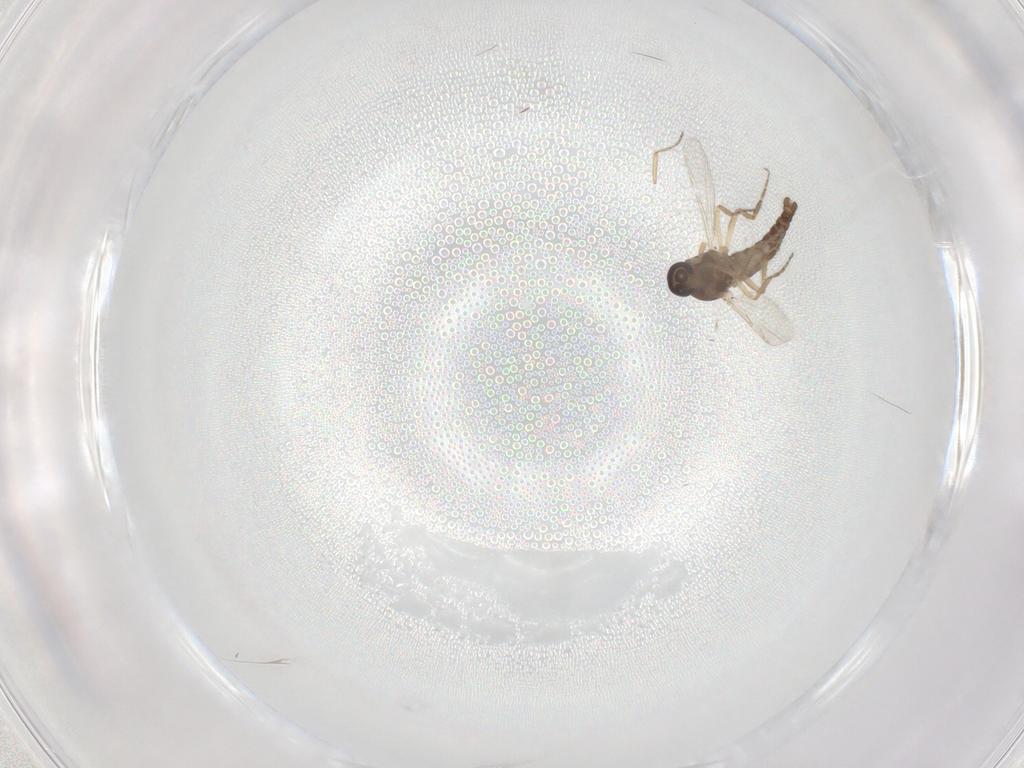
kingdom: Animalia
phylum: Arthropoda
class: Insecta
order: Diptera
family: Ceratopogonidae
